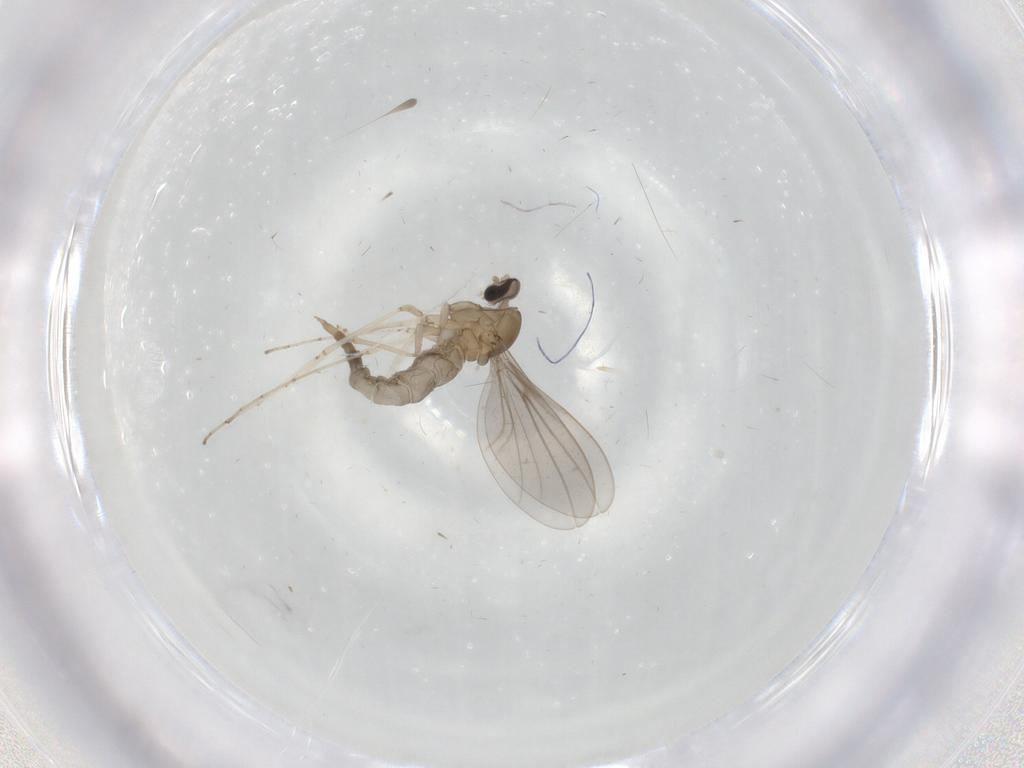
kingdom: Animalia
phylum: Arthropoda
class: Insecta
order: Diptera
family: Cecidomyiidae
